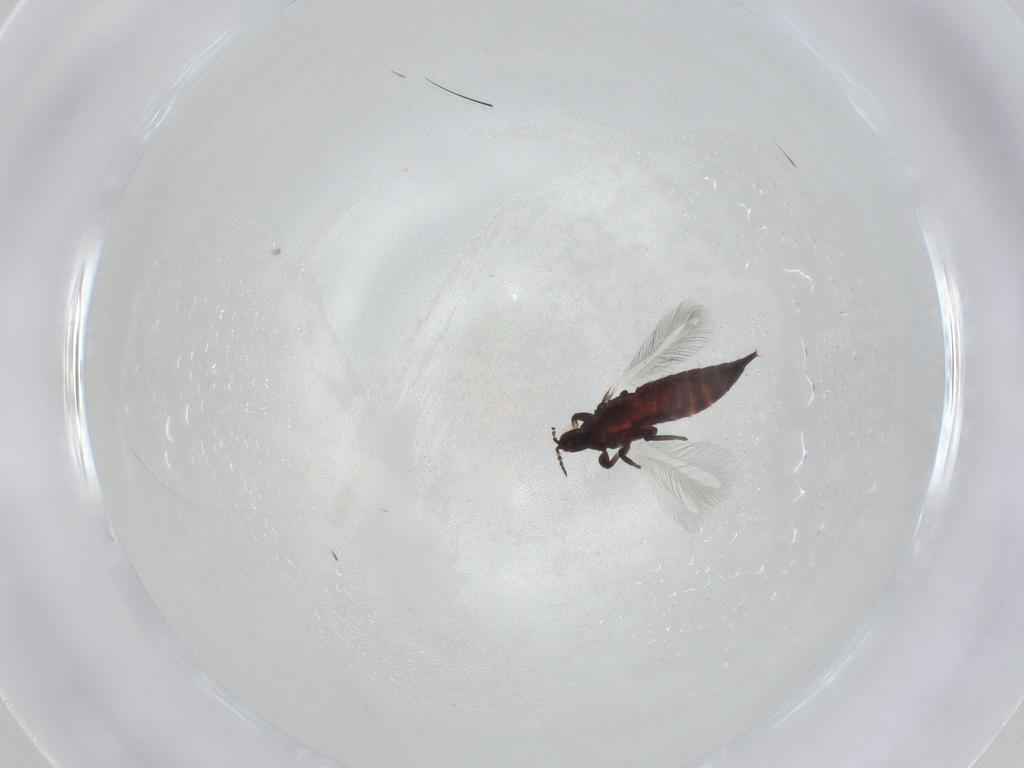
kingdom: Animalia
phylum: Arthropoda
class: Insecta
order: Thysanoptera
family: Phlaeothripidae
